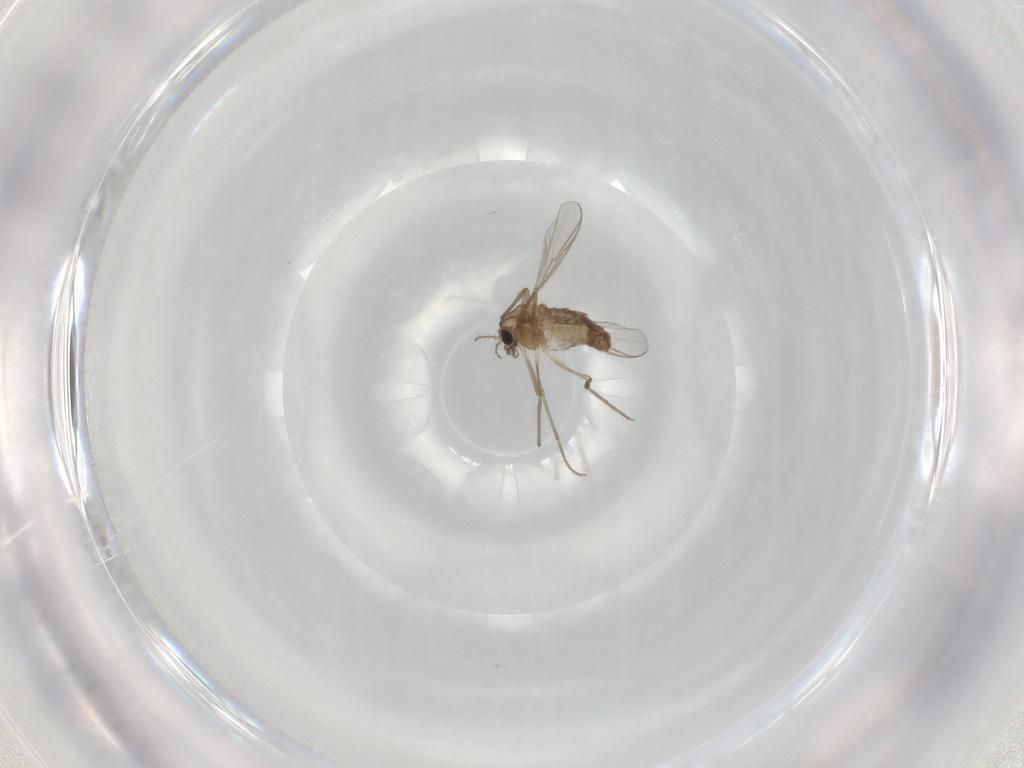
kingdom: Animalia
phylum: Arthropoda
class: Insecta
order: Diptera
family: Chironomidae
